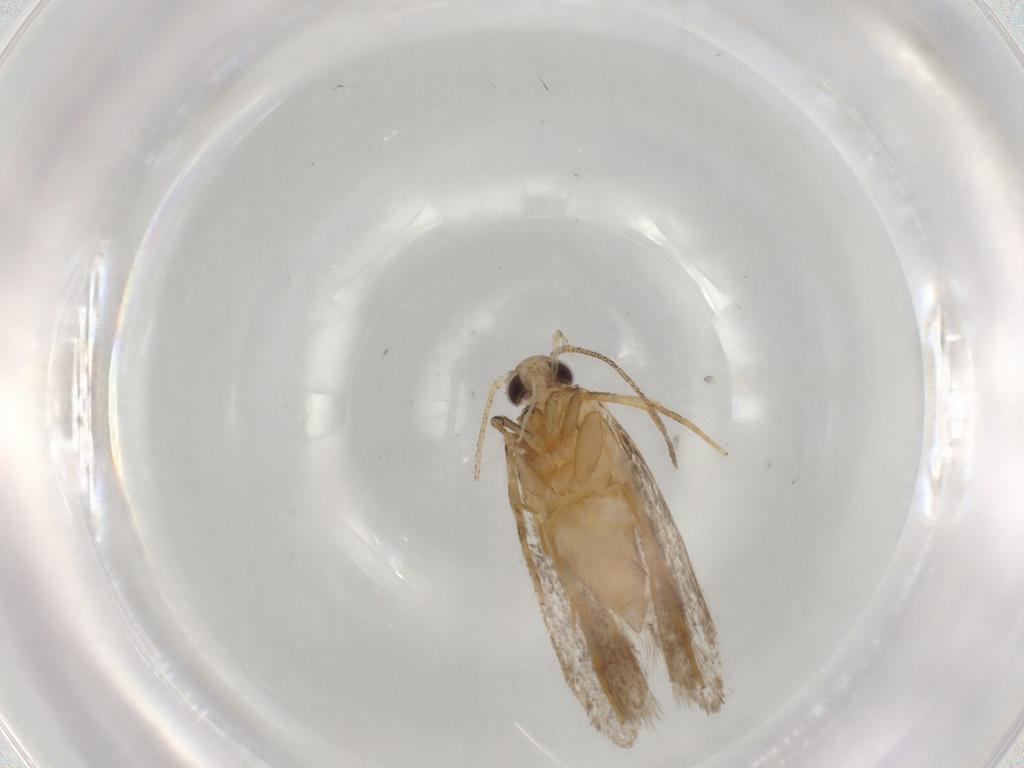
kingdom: Animalia
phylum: Arthropoda
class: Insecta
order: Lepidoptera
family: Autostichidae
